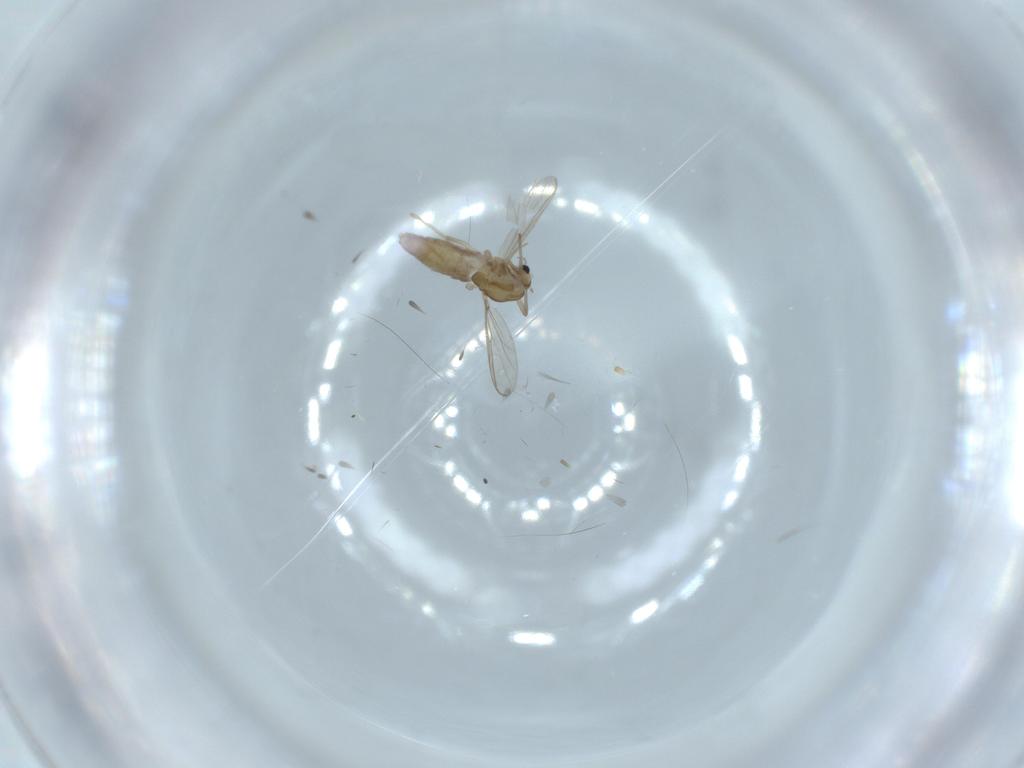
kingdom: Animalia
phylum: Arthropoda
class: Insecta
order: Diptera
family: Chironomidae
